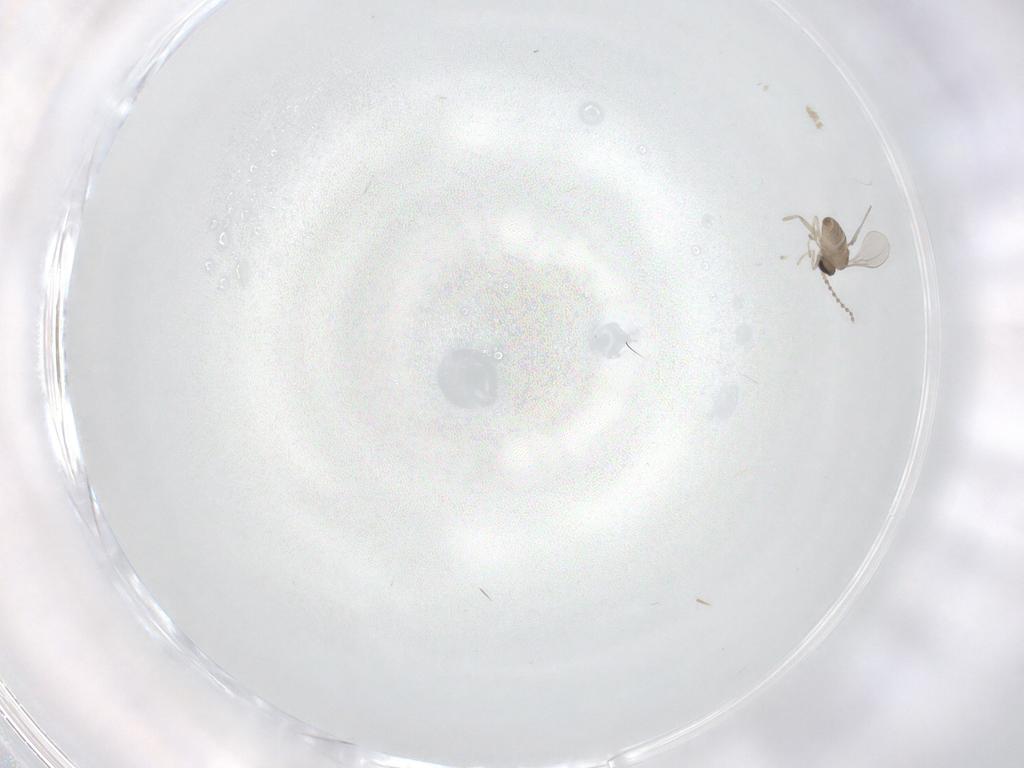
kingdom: Animalia
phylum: Arthropoda
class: Insecta
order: Diptera
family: Cecidomyiidae
